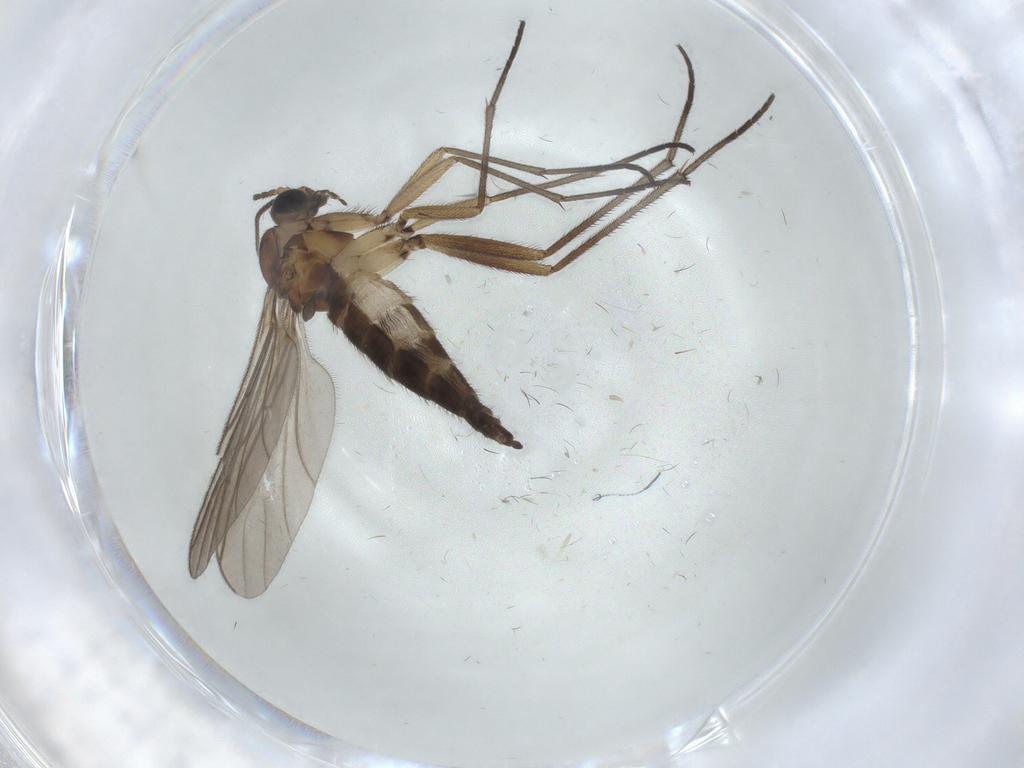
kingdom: Animalia
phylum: Arthropoda
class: Insecta
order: Diptera
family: Sciaridae
